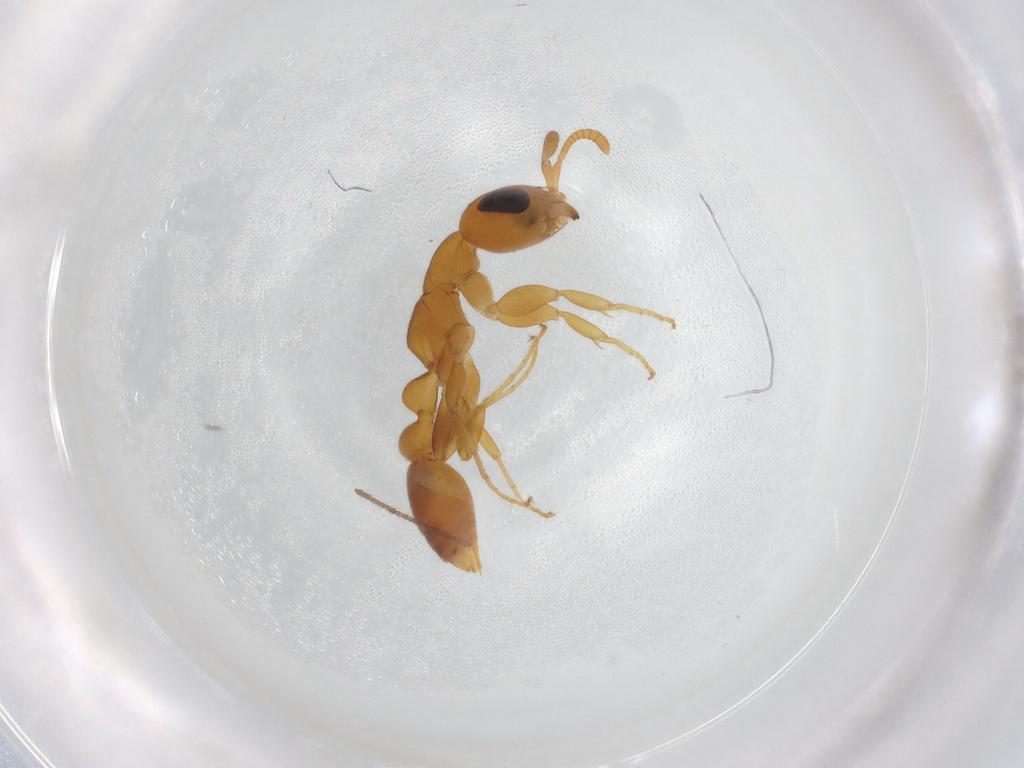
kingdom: Animalia
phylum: Arthropoda
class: Insecta
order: Hymenoptera
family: Formicidae
